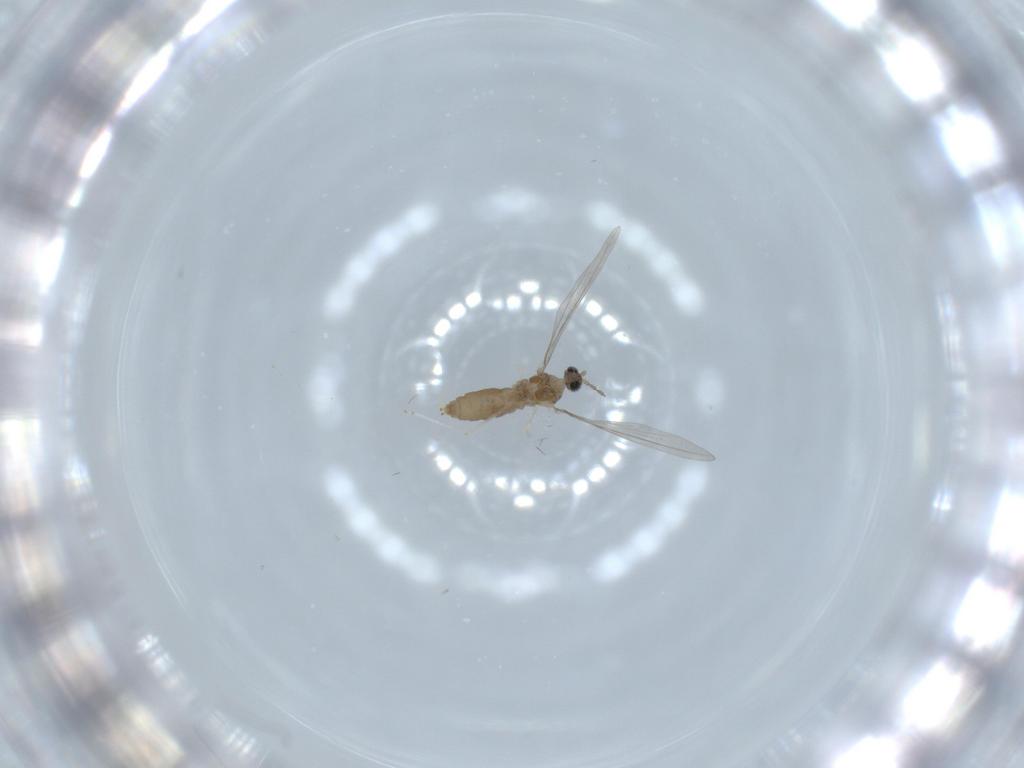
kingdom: Animalia
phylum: Arthropoda
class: Insecta
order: Diptera
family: Cecidomyiidae
